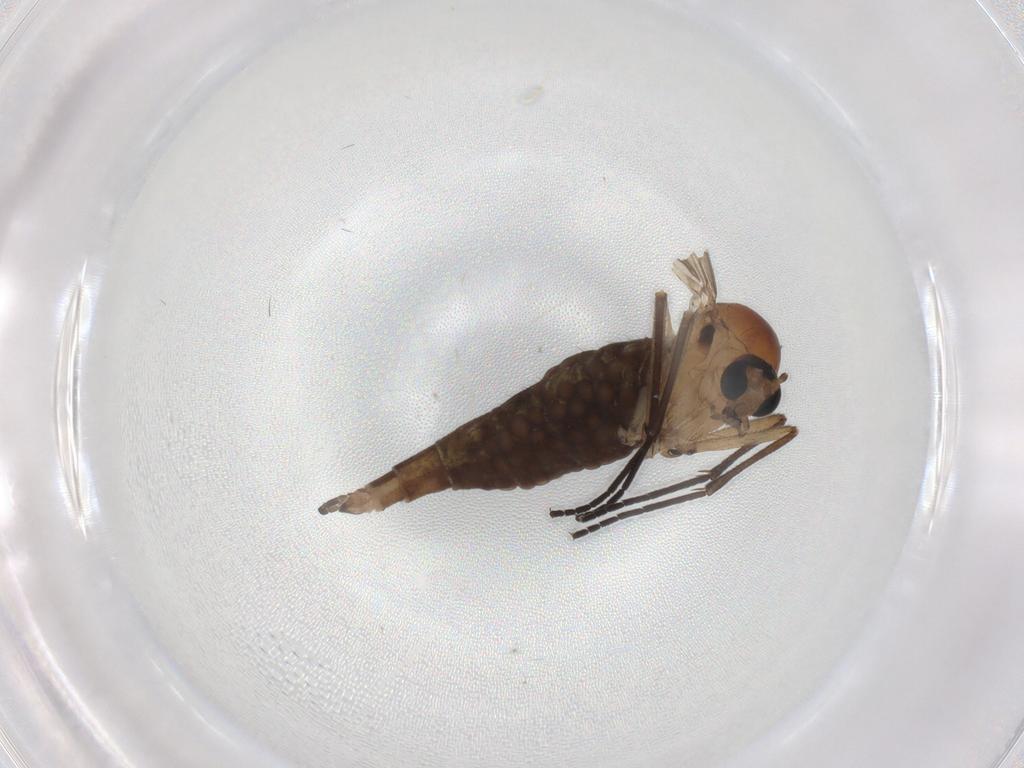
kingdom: Animalia
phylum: Arthropoda
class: Insecta
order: Diptera
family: Sciaridae
